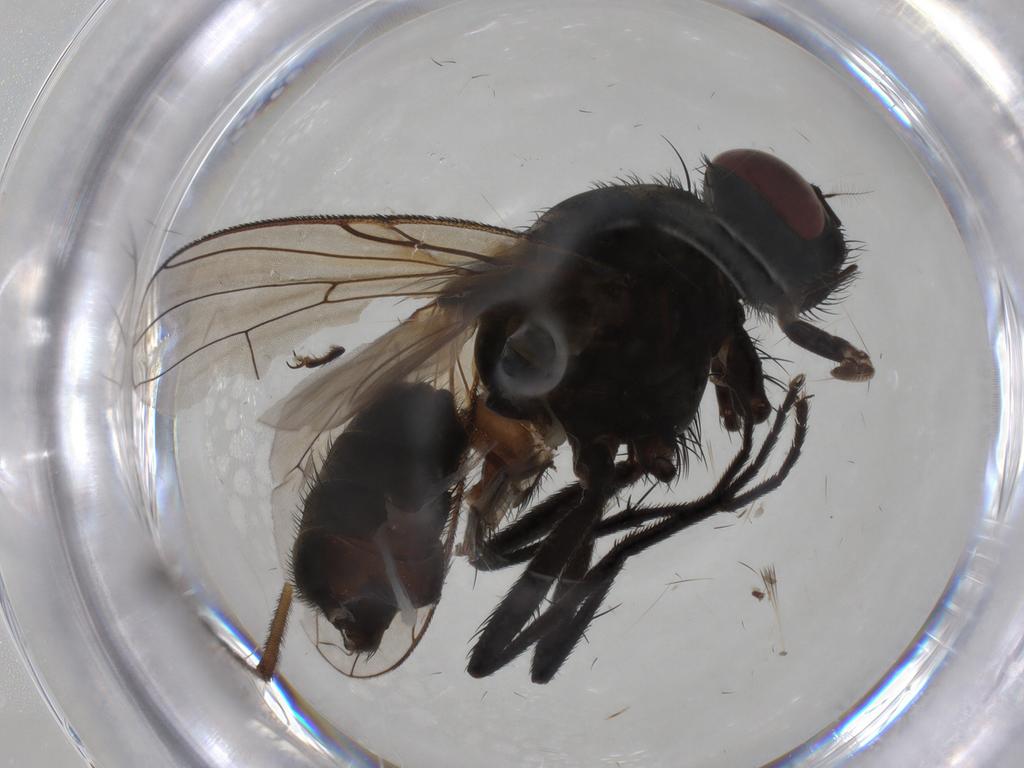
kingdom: Animalia
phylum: Arthropoda
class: Insecta
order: Diptera
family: Muscidae
